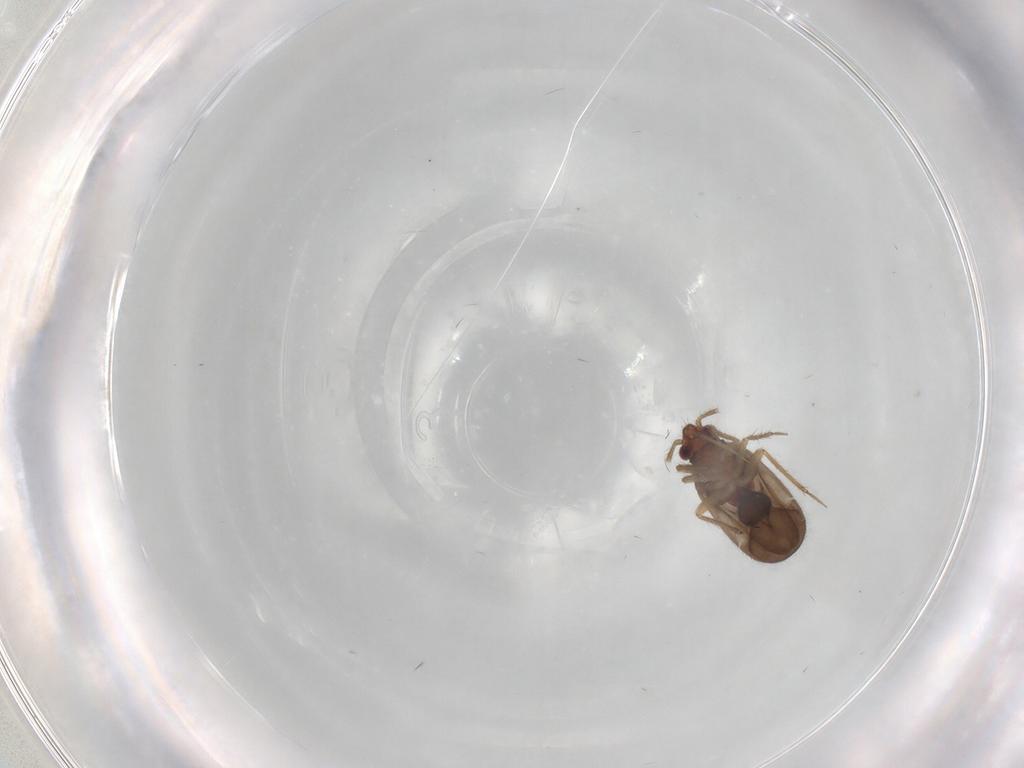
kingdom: Animalia
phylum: Arthropoda
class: Insecta
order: Hemiptera
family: Ceratocombidae
